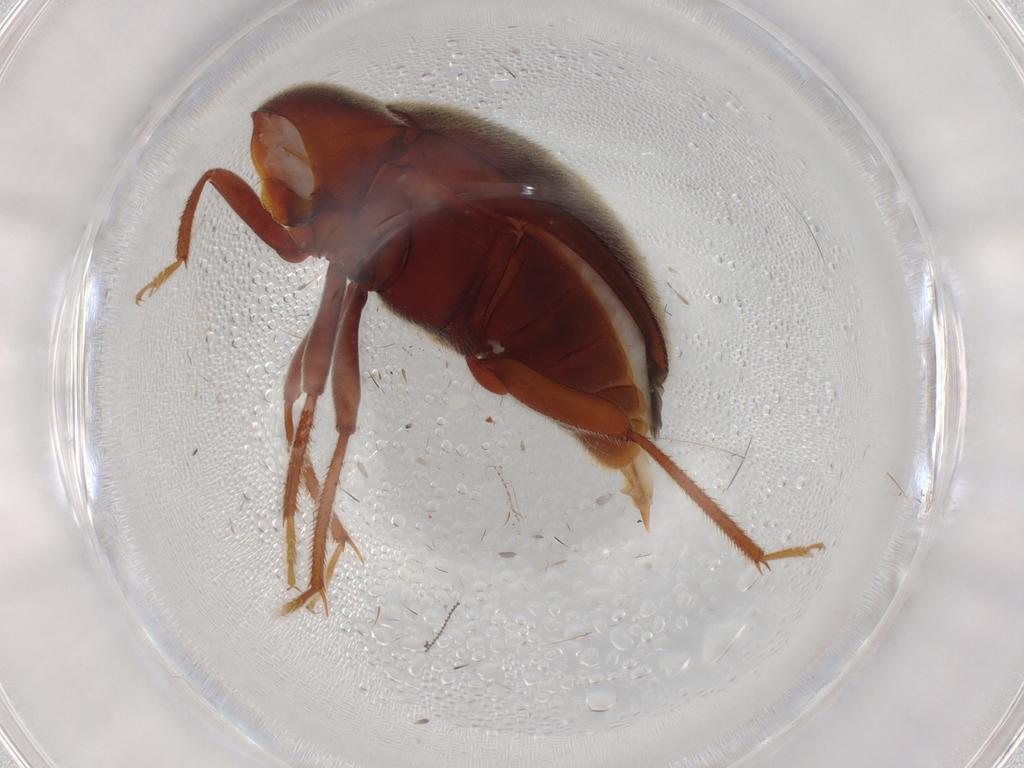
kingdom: Animalia
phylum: Arthropoda
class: Insecta
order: Coleoptera
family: Ptilodactylidae
